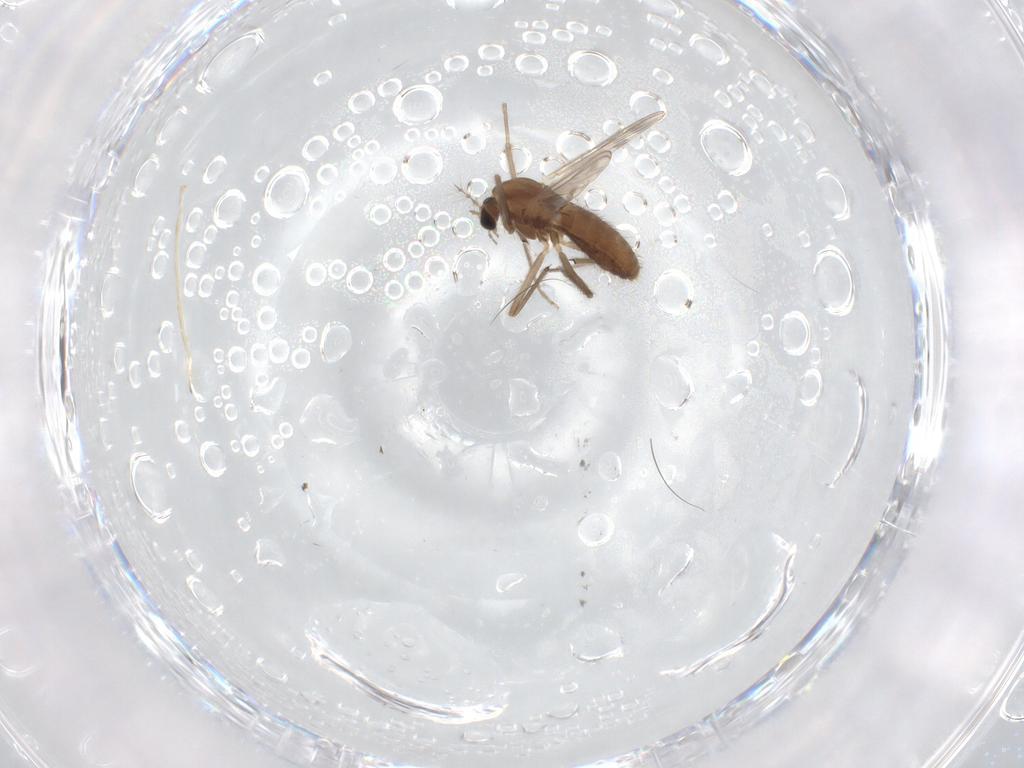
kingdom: Animalia
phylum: Arthropoda
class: Insecta
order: Diptera
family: Chironomidae
